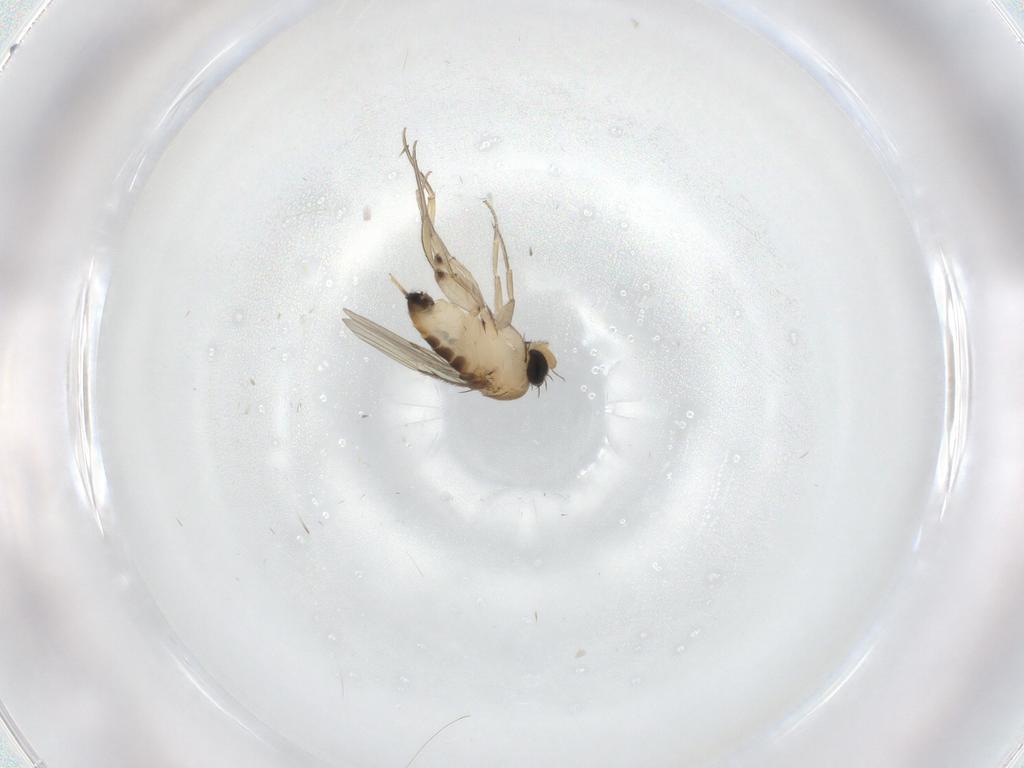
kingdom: Animalia
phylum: Arthropoda
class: Insecta
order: Diptera
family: Phoridae
